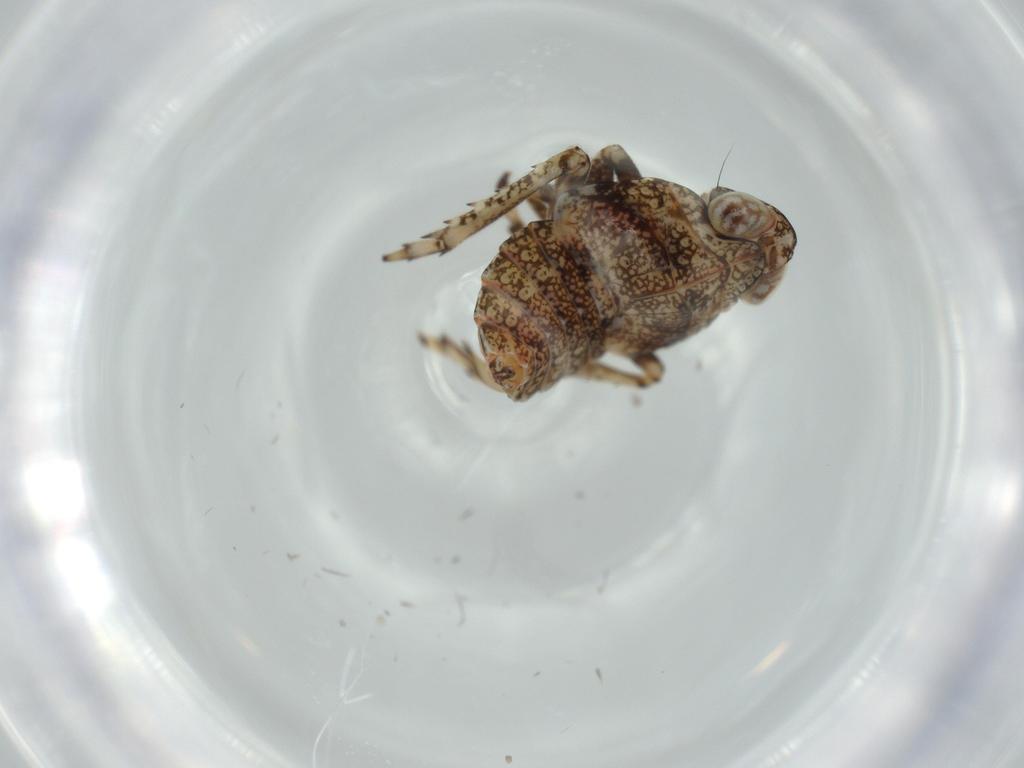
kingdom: Animalia
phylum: Arthropoda
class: Insecta
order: Hemiptera
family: Issidae
